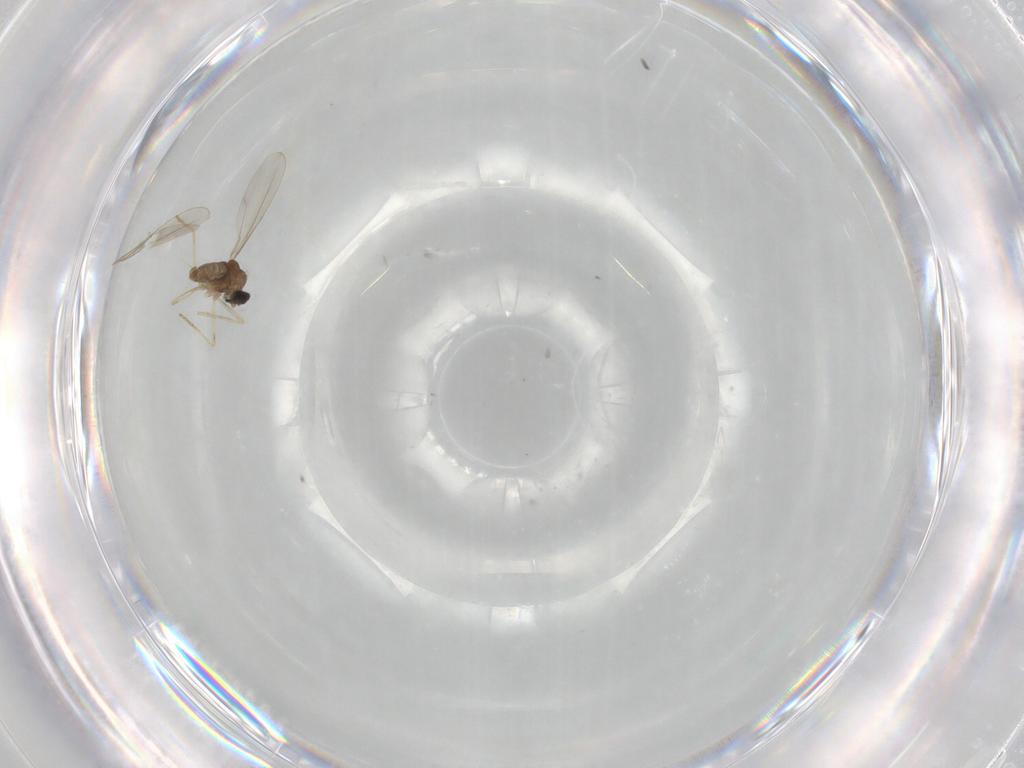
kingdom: Animalia
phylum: Arthropoda
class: Insecta
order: Diptera
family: Cecidomyiidae
